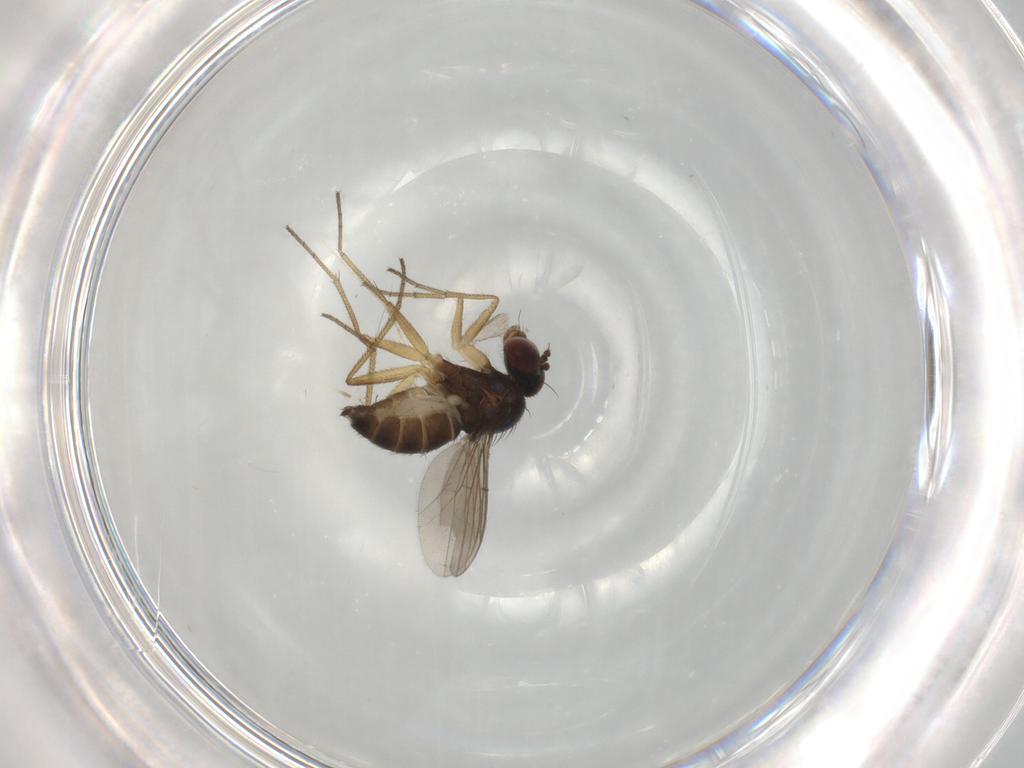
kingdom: Animalia
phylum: Arthropoda
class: Insecta
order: Diptera
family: Dolichopodidae
